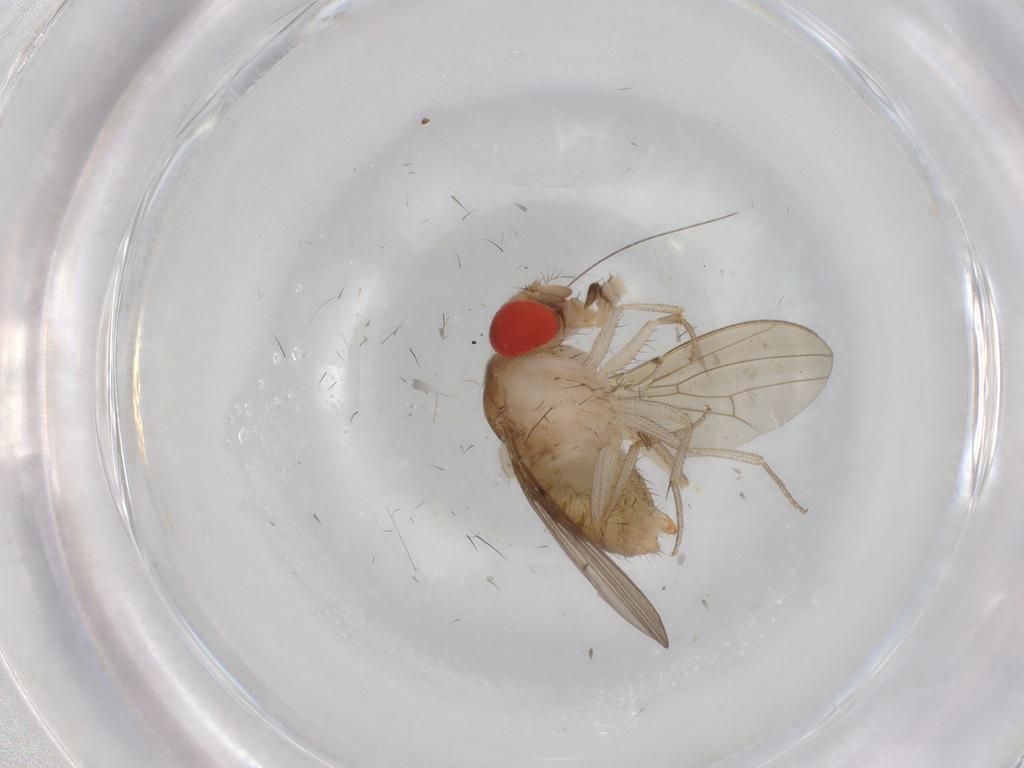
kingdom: Animalia
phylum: Arthropoda
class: Insecta
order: Diptera
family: Drosophilidae
